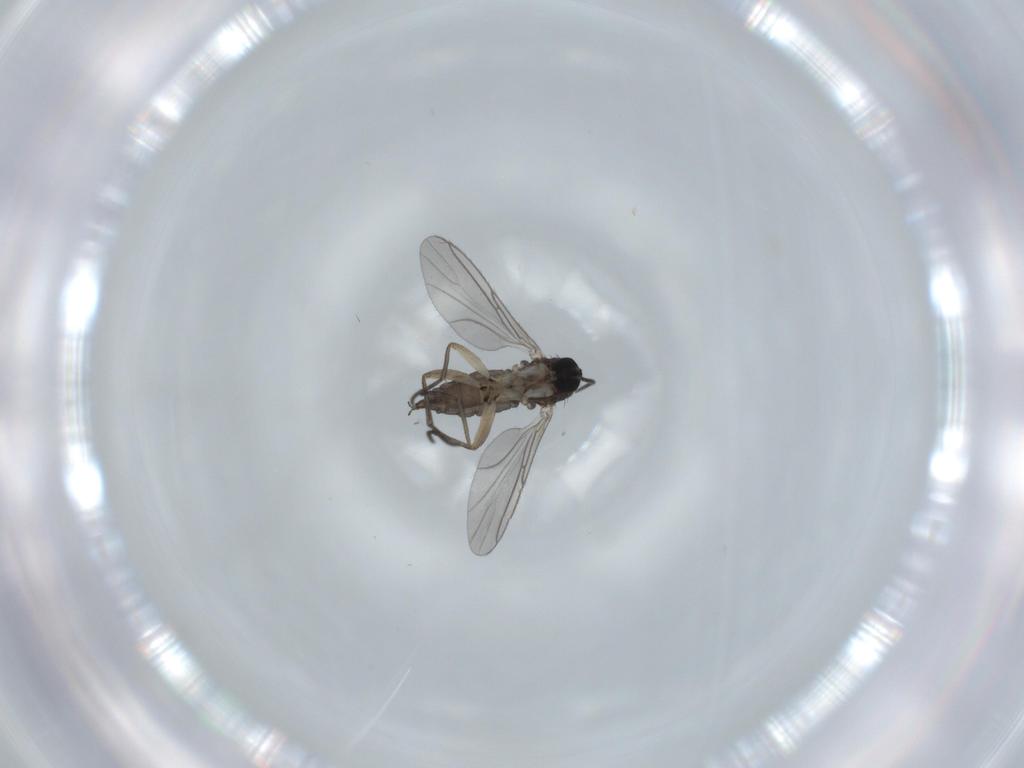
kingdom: Animalia
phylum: Arthropoda
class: Insecta
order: Diptera
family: Sciaridae
